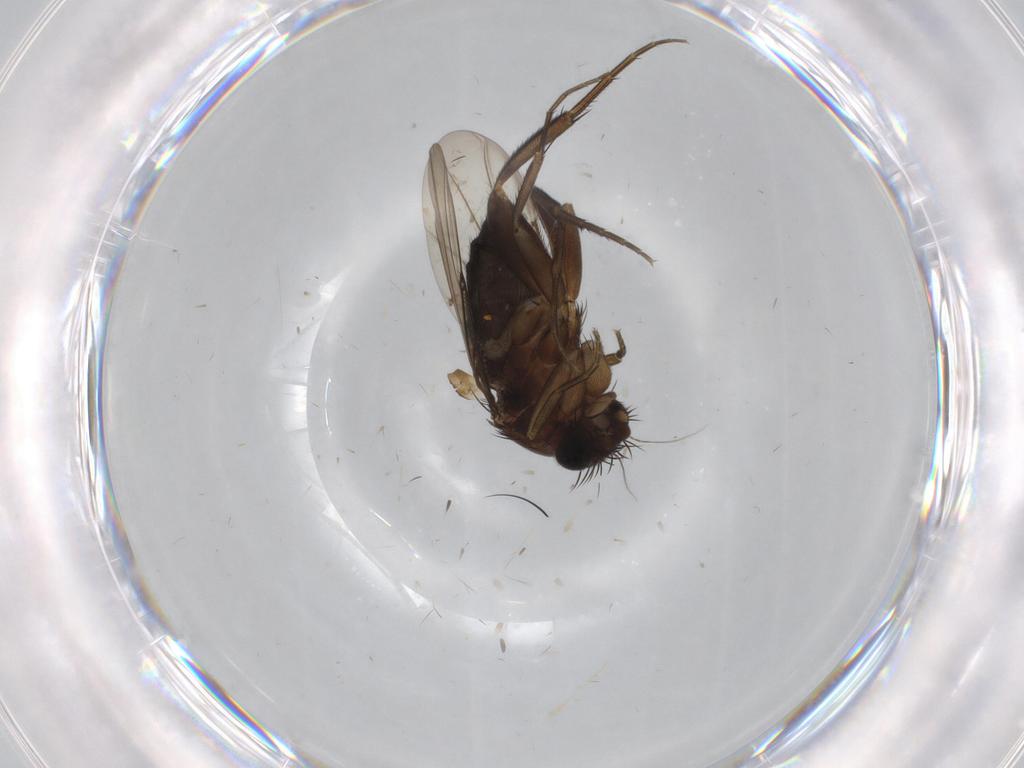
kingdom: Animalia
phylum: Arthropoda
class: Insecta
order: Diptera
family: Phoridae
